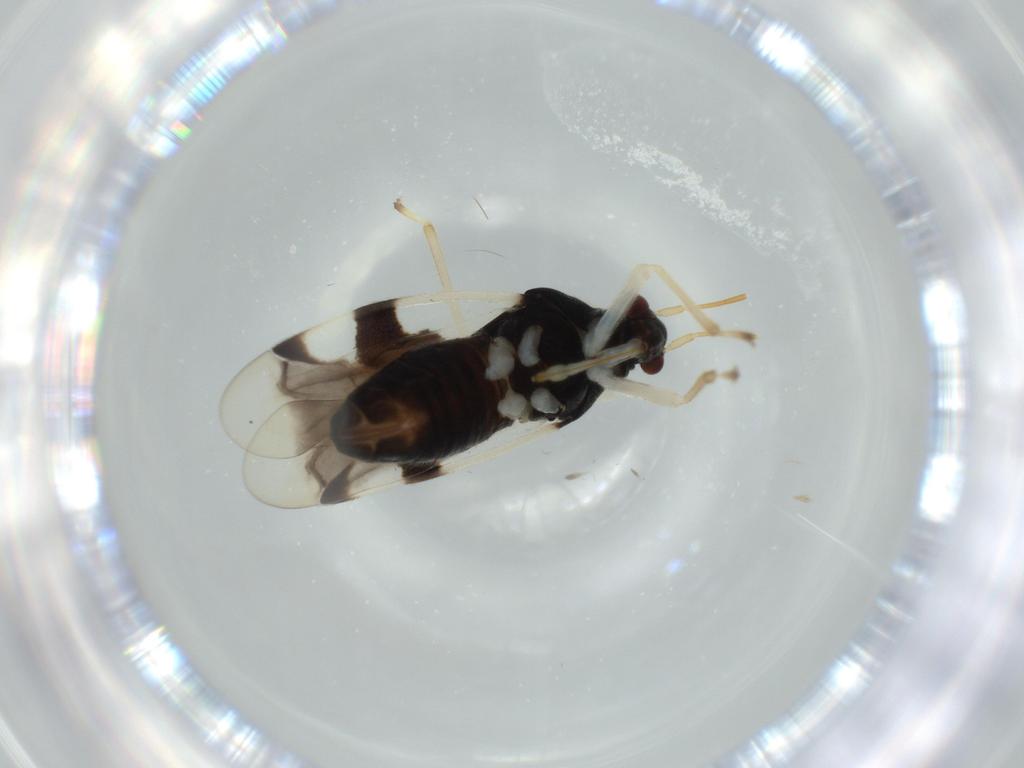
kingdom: Animalia
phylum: Arthropoda
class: Insecta
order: Hemiptera
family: Miridae
